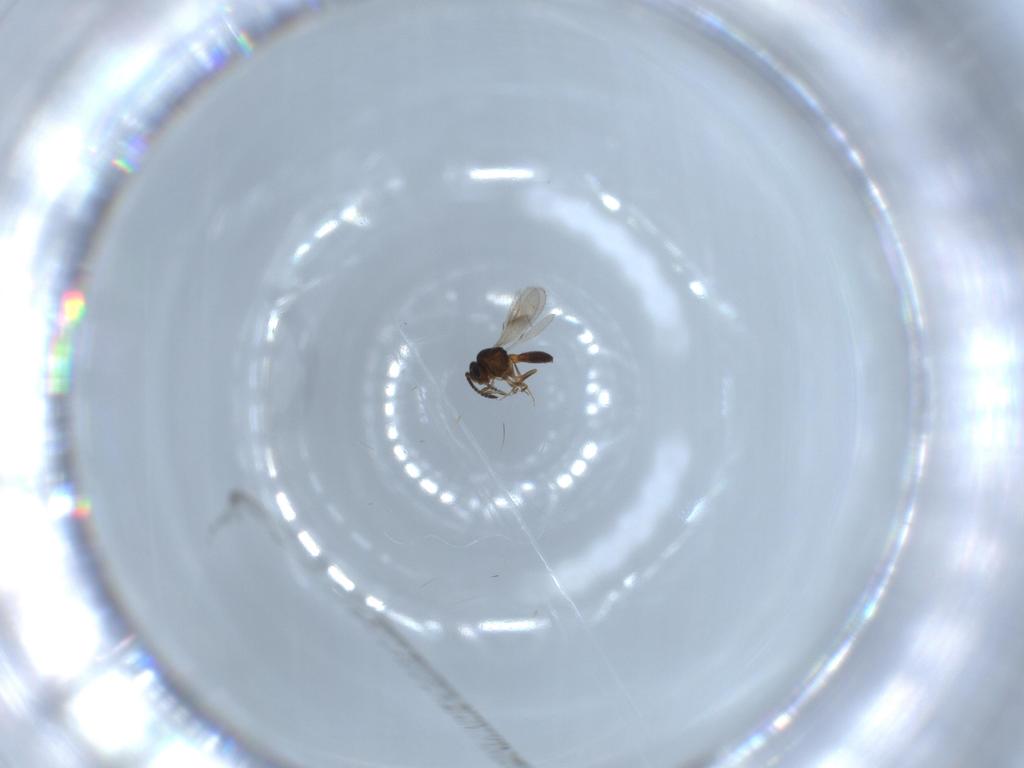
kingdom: Animalia
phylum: Arthropoda
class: Insecta
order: Hymenoptera
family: Scelionidae
